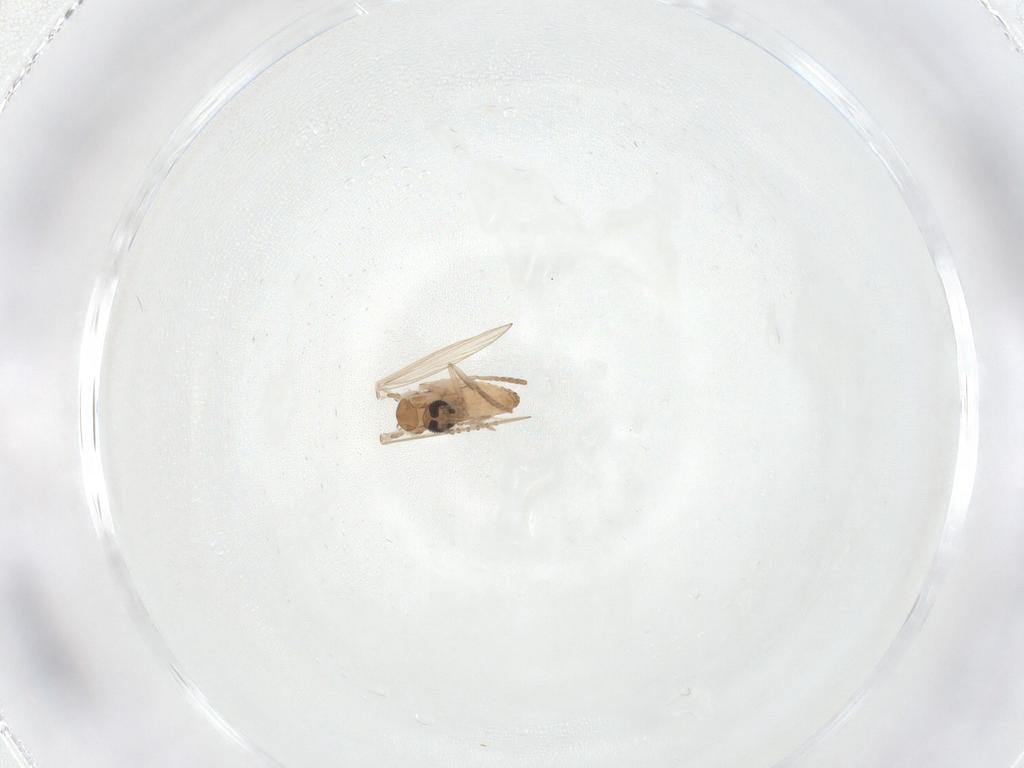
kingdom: Animalia
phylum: Arthropoda
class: Insecta
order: Diptera
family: Psychodidae
